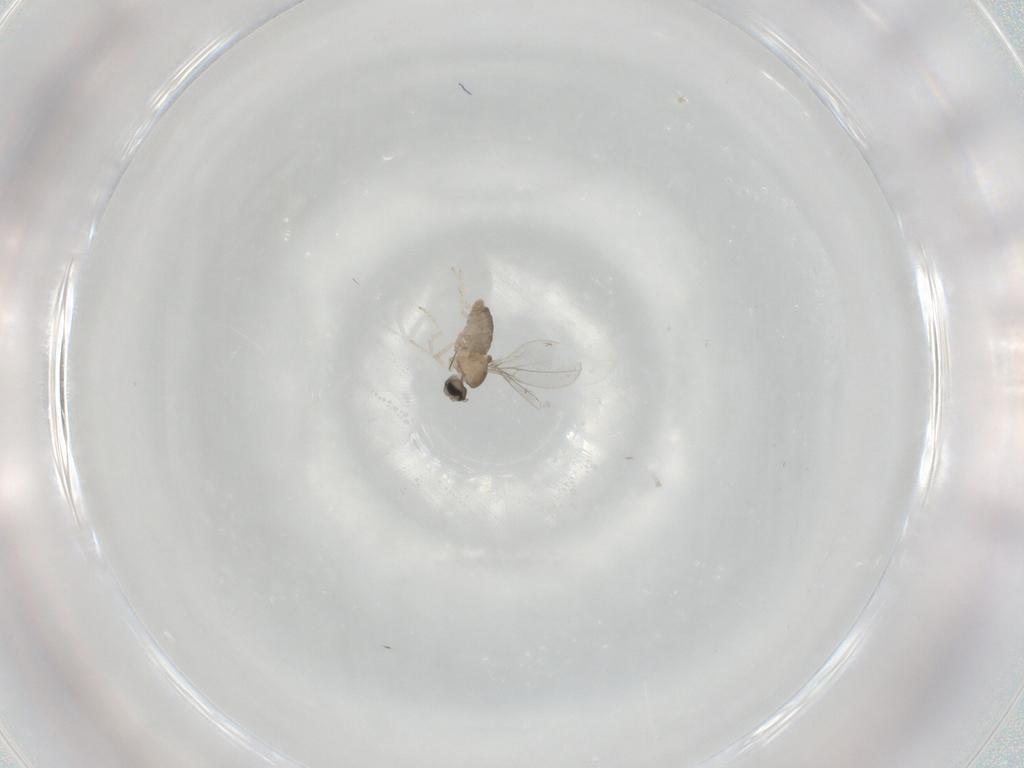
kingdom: Animalia
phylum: Arthropoda
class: Insecta
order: Diptera
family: Cecidomyiidae
